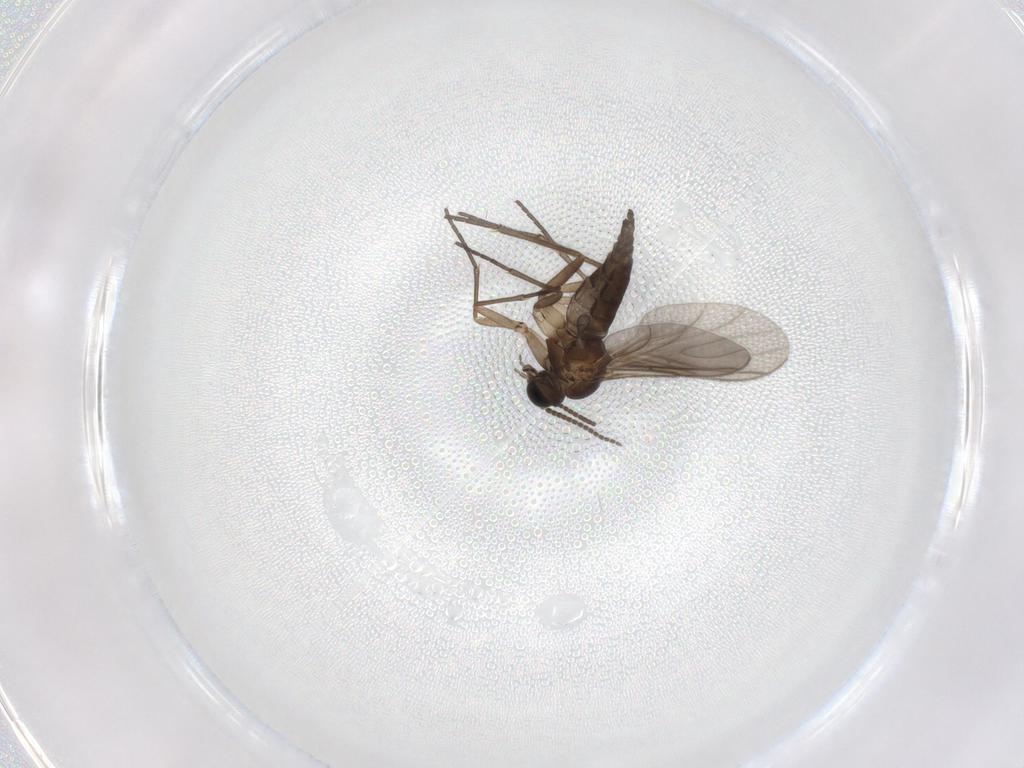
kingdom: Animalia
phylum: Arthropoda
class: Insecta
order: Diptera
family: Sciaridae
